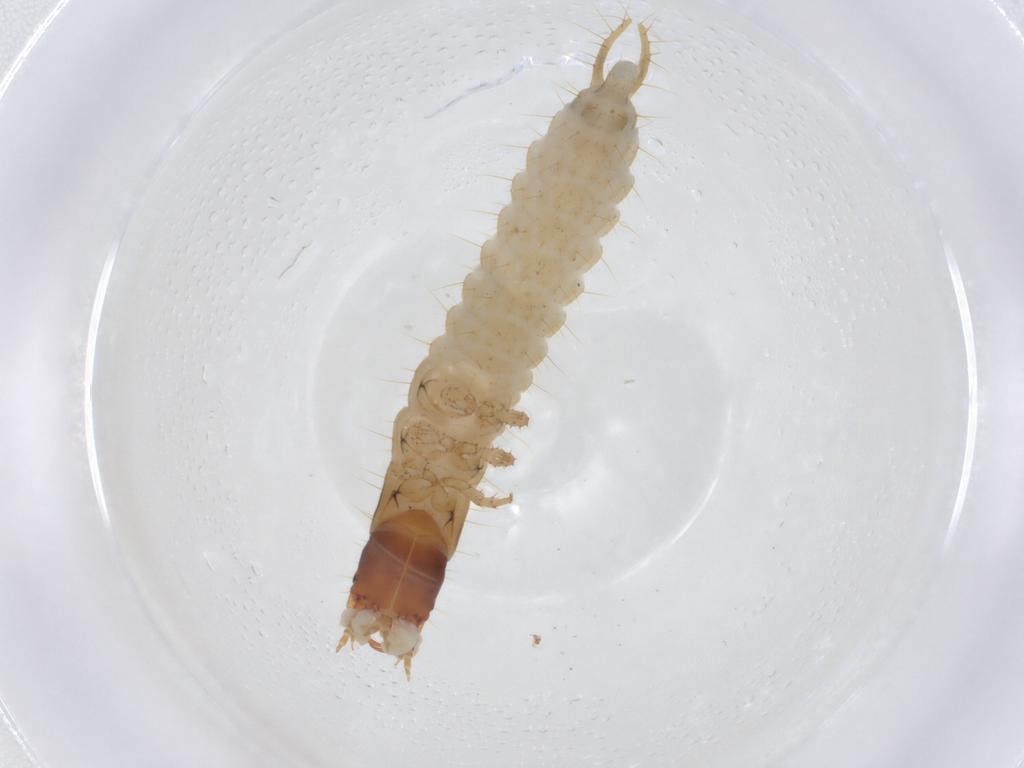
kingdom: Animalia
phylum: Arthropoda
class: Insecta
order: Coleoptera
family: Carabidae
